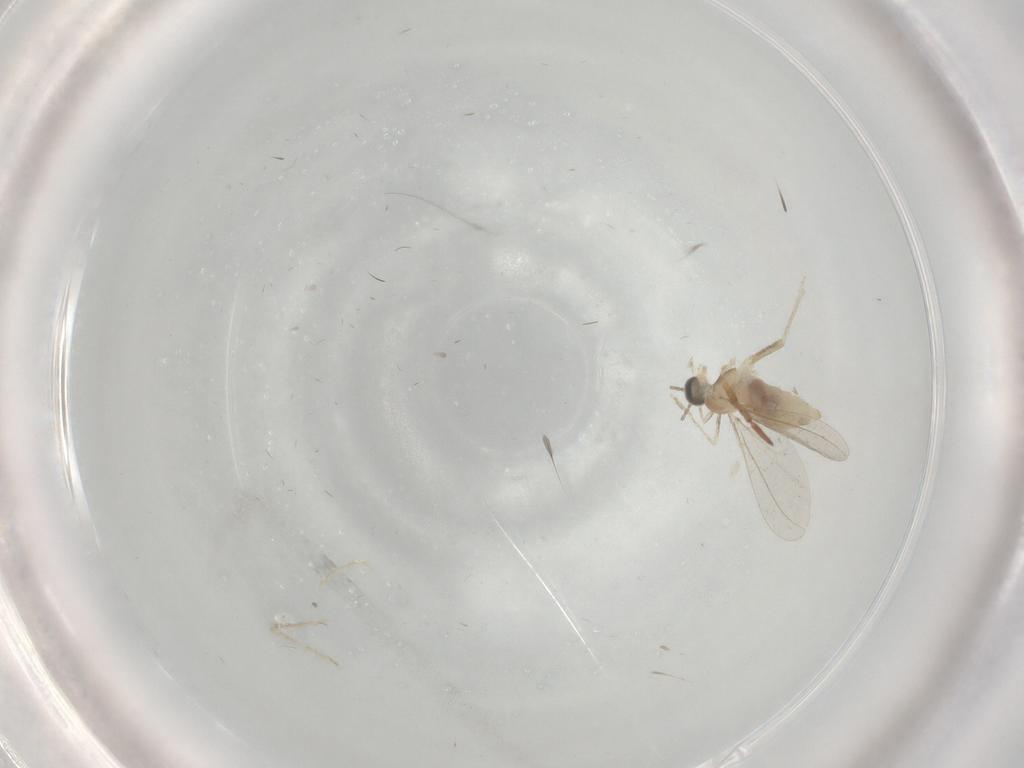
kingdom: Animalia
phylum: Arthropoda
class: Insecta
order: Diptera
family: Cecidomyiidae
